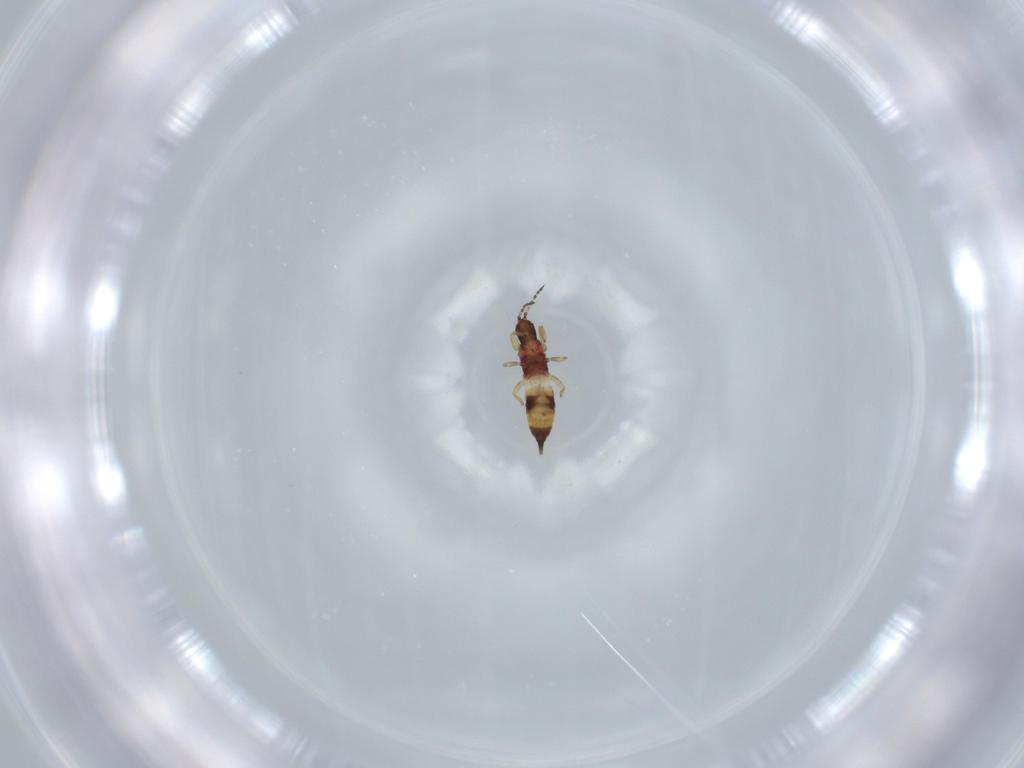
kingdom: Animalia
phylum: Arthropoda
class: Insecta
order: Thysanoptera
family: Phlaeothripidae
